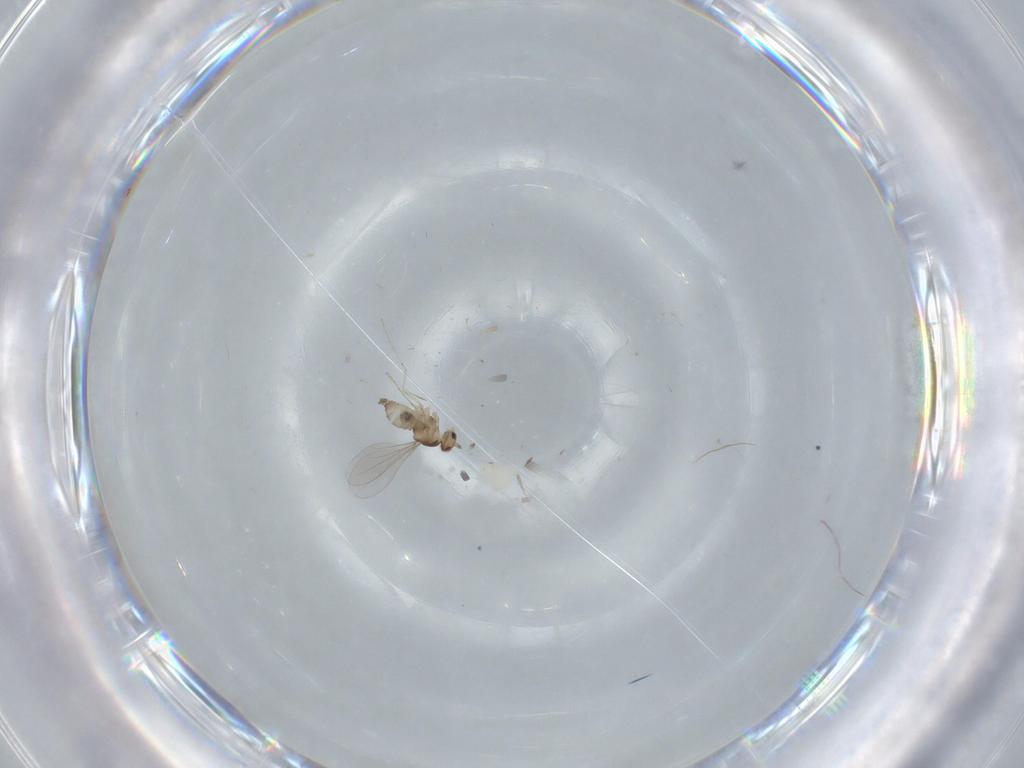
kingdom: Animalia
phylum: Arthropoda
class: Insecta
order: Diptera
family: Cecidomyiidae
